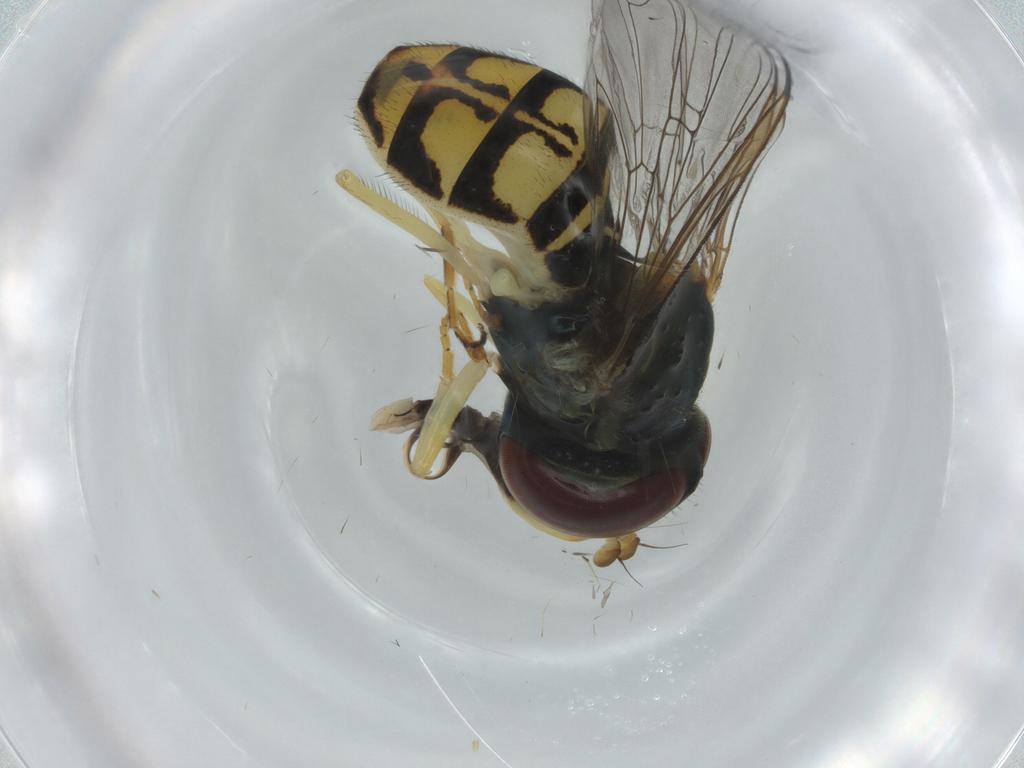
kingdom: Animalia
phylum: Arthropoda
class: Insecta
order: Diptera
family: Syrphidae
